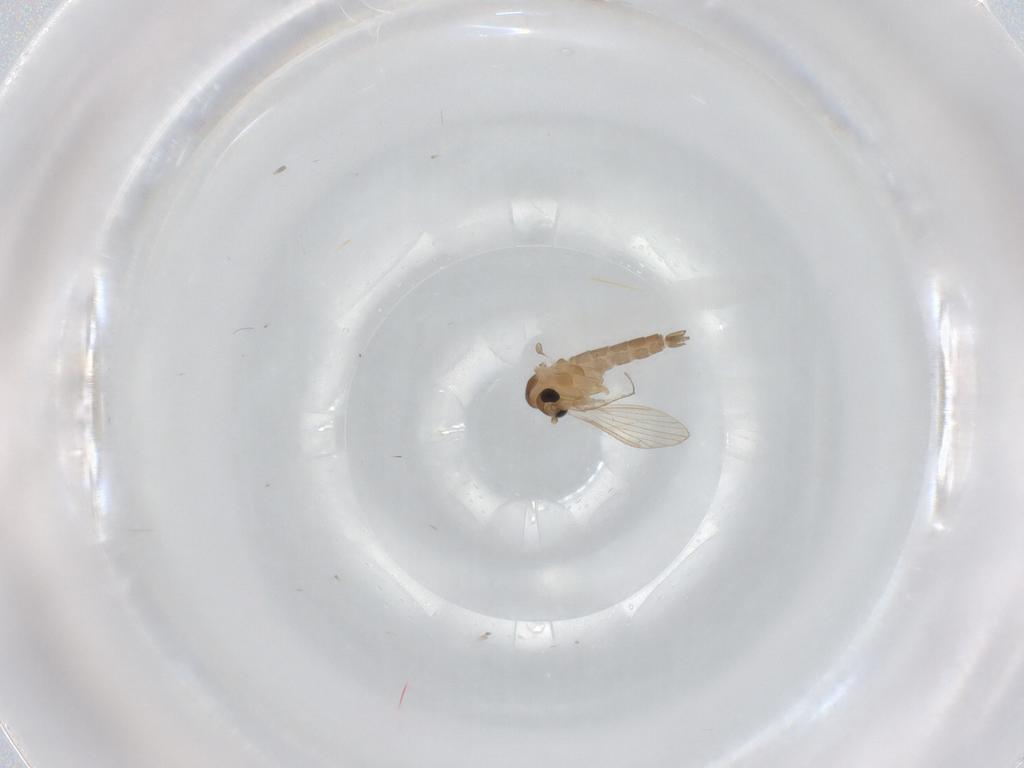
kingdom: Animalia
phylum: Arthropoda
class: Insecta
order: Diptera
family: Psychodidae
